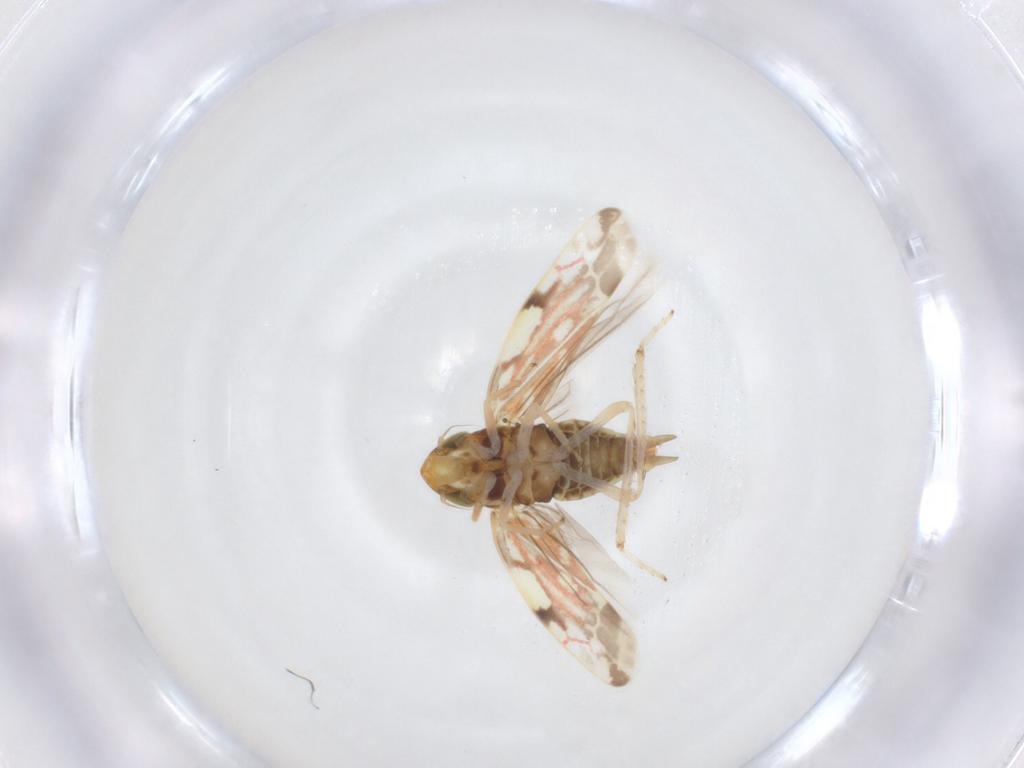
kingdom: Animalia
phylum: Arthropoda
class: Insecta
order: Hemiptera
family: Cicadellidae
